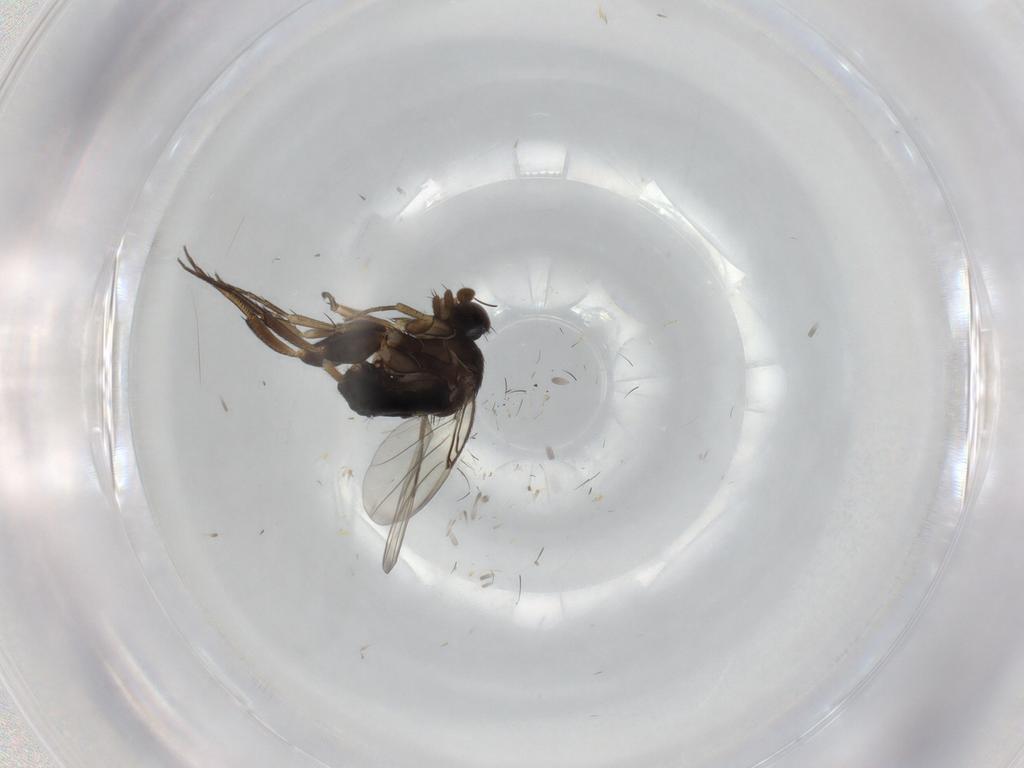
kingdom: Animalia
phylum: Arthropoda
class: Insecta
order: Diptera
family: Phoridae
